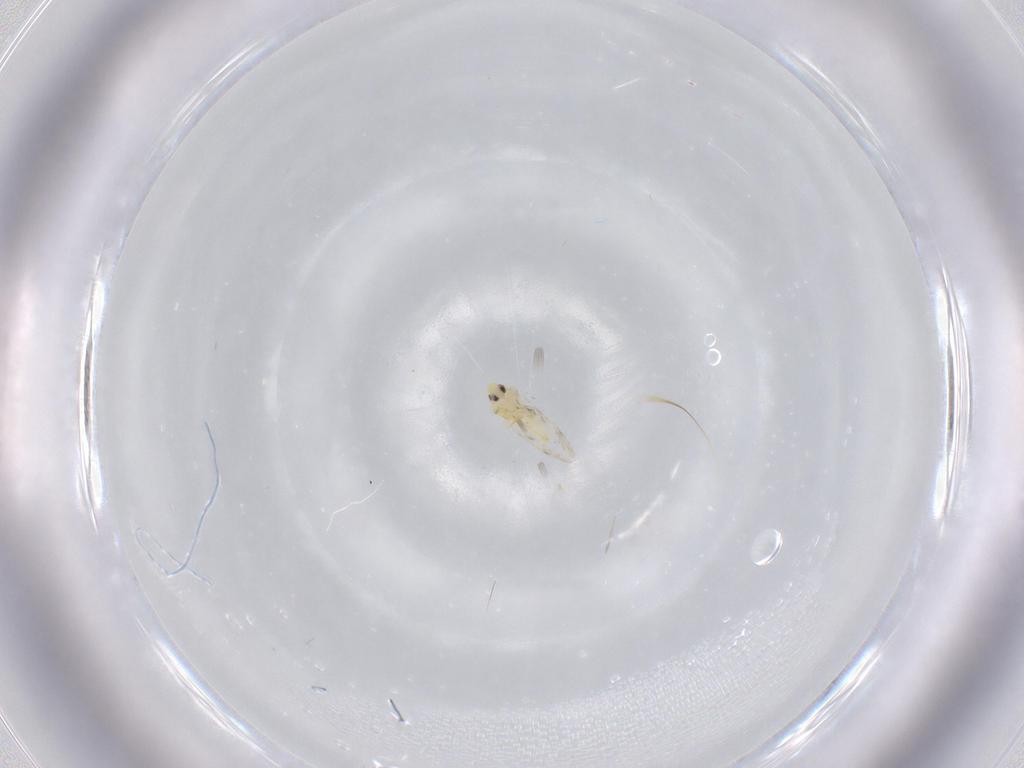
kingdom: Animalia
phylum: Arthropoda
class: Insecta
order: Hemiptera
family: Aleyrodidae
